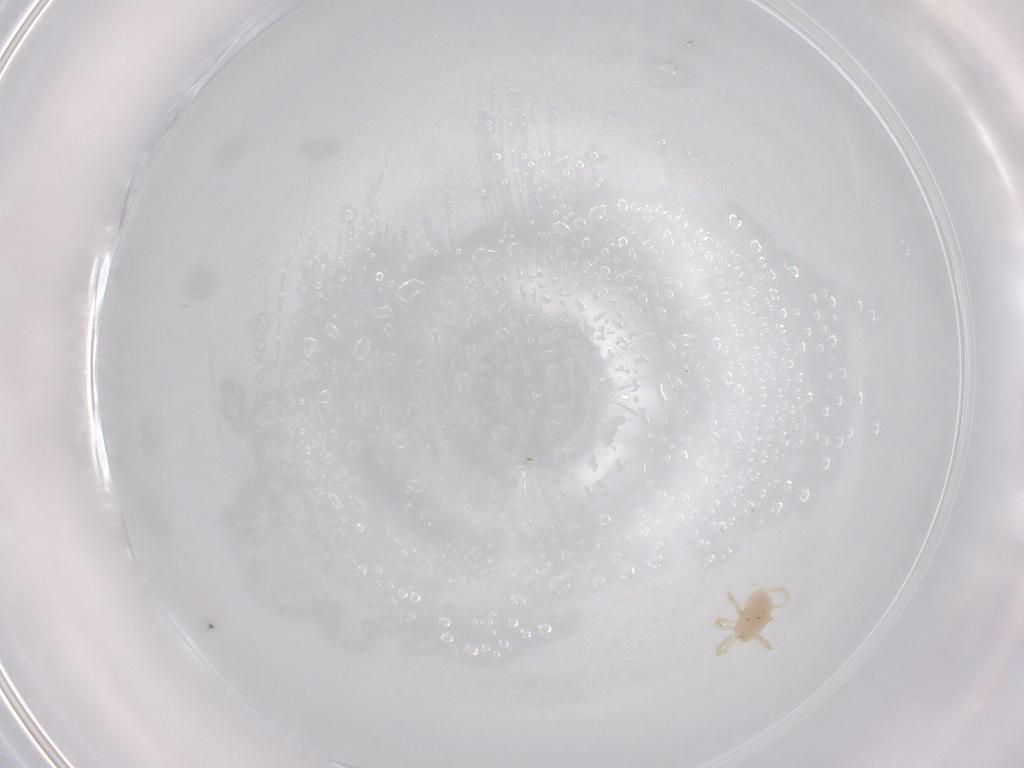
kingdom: Animalia
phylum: Arthropoda
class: Arachnida
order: Trombidiformes
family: Trombidiidae
